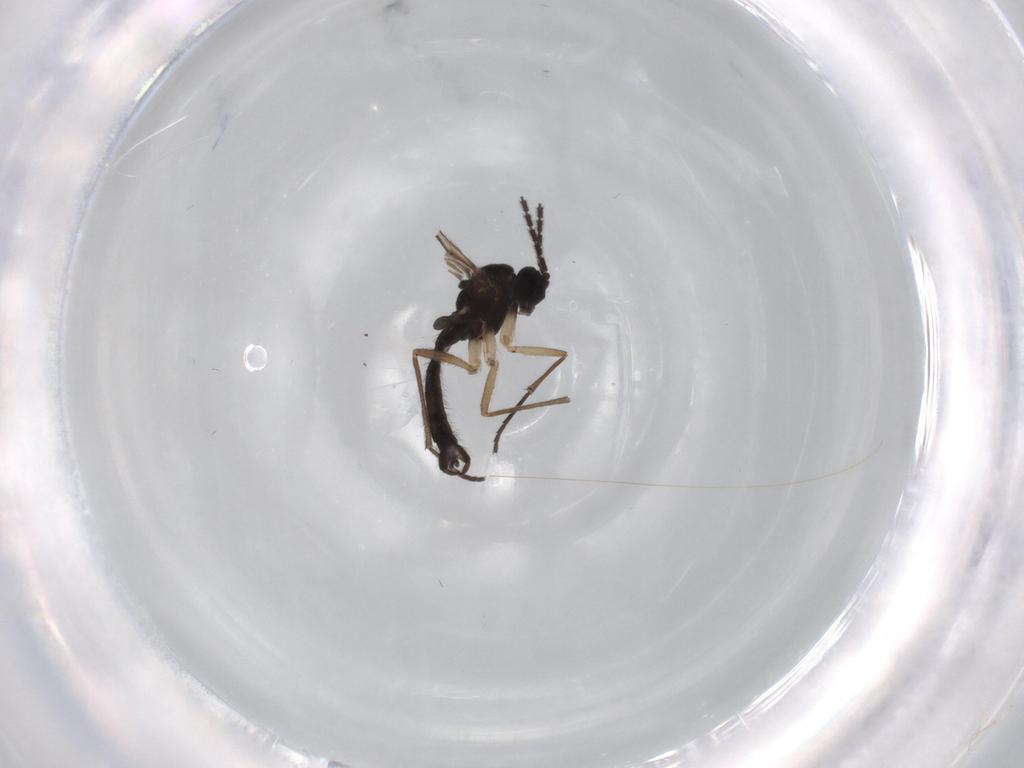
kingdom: Animalia
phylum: Arthropoda
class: Insecta
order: Diptera
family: Sciaridae
